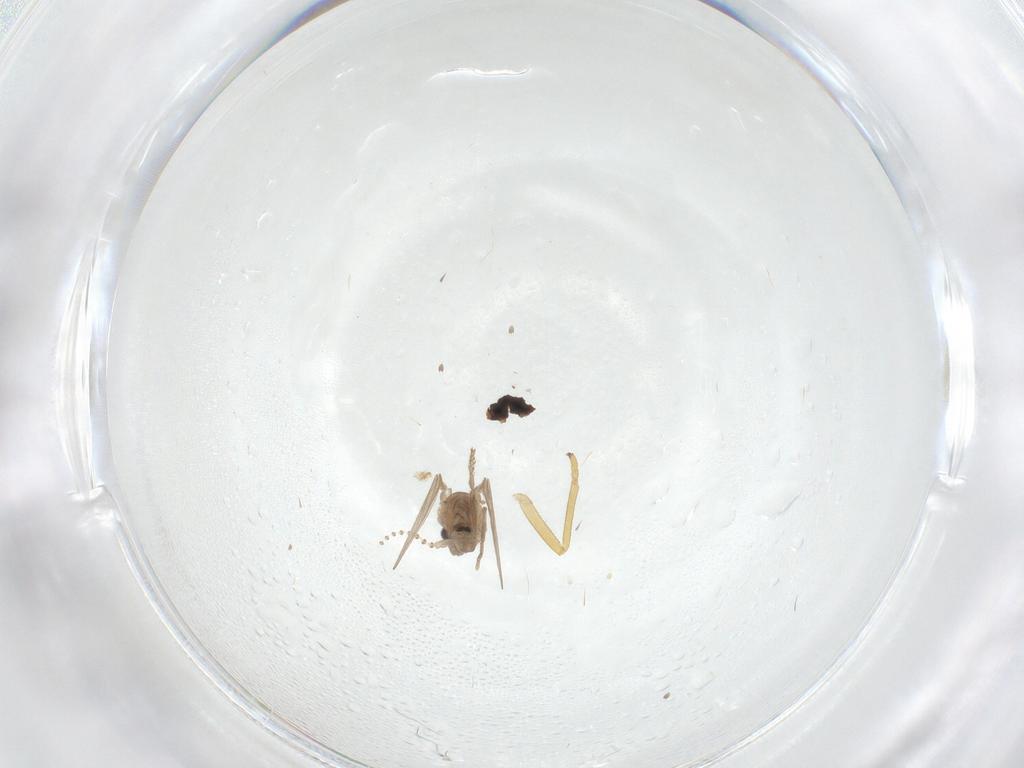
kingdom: Animalia
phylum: Arthropoda
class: Insecta
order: Diptera
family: Psychodidae
